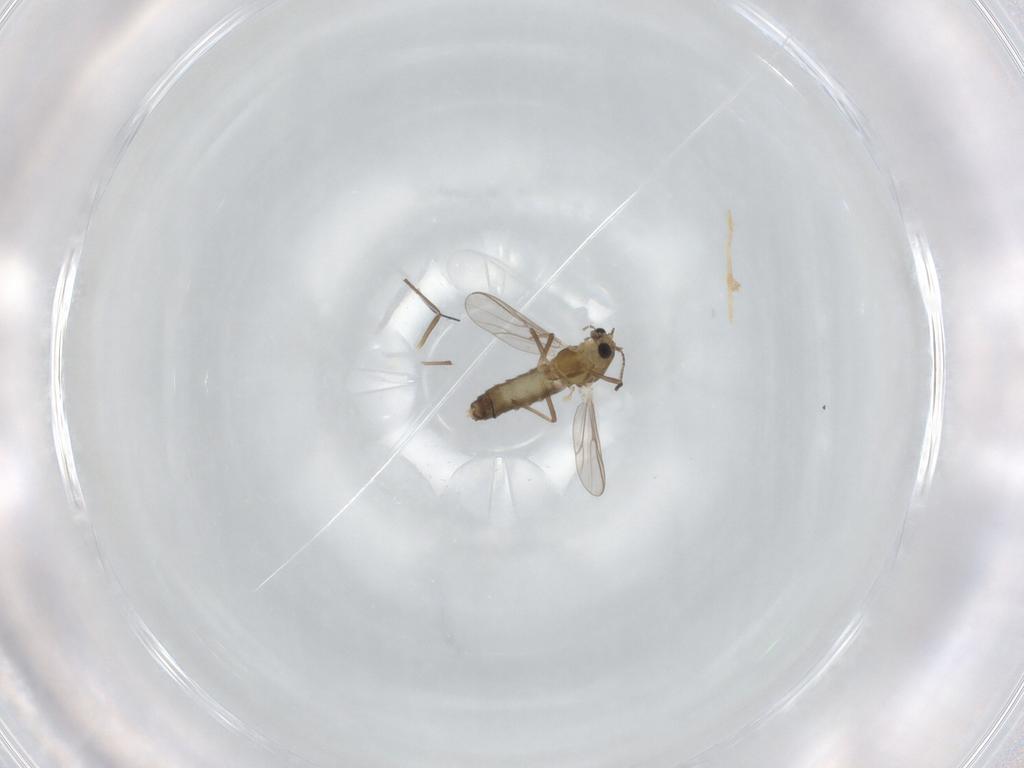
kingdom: Animalia
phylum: Arthropoda
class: Insecta
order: Diptera
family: Chironomidae
